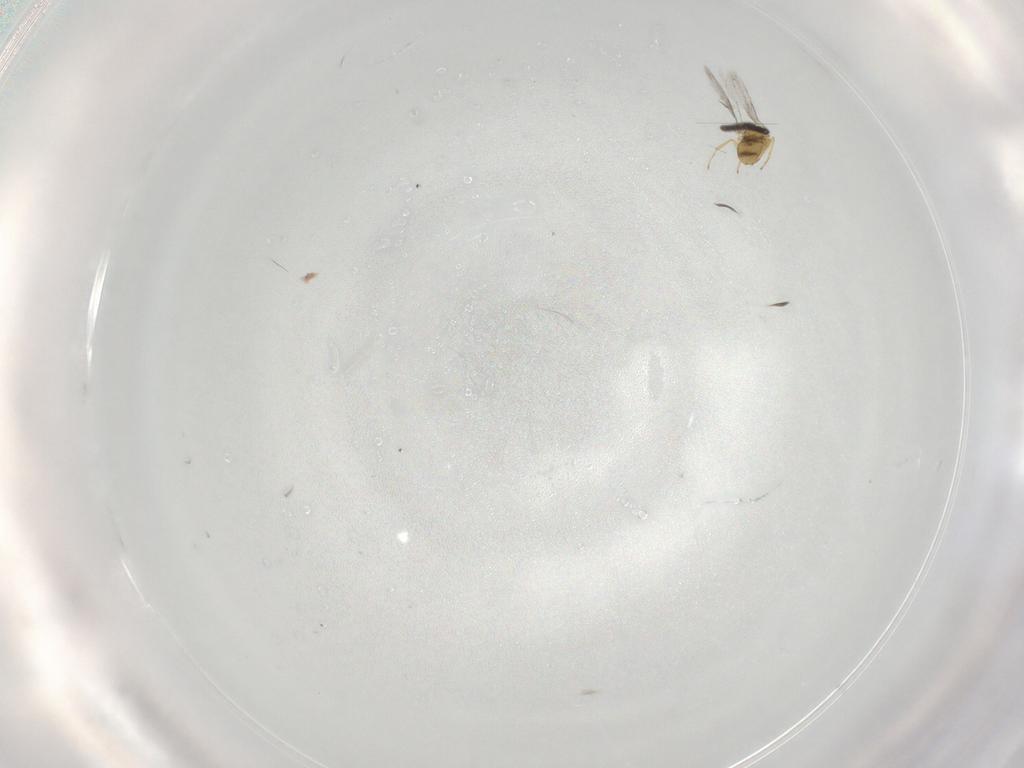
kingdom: Animalia
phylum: Arthropoda
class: Insecta
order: Hymenoptera
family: Aphelinidae
